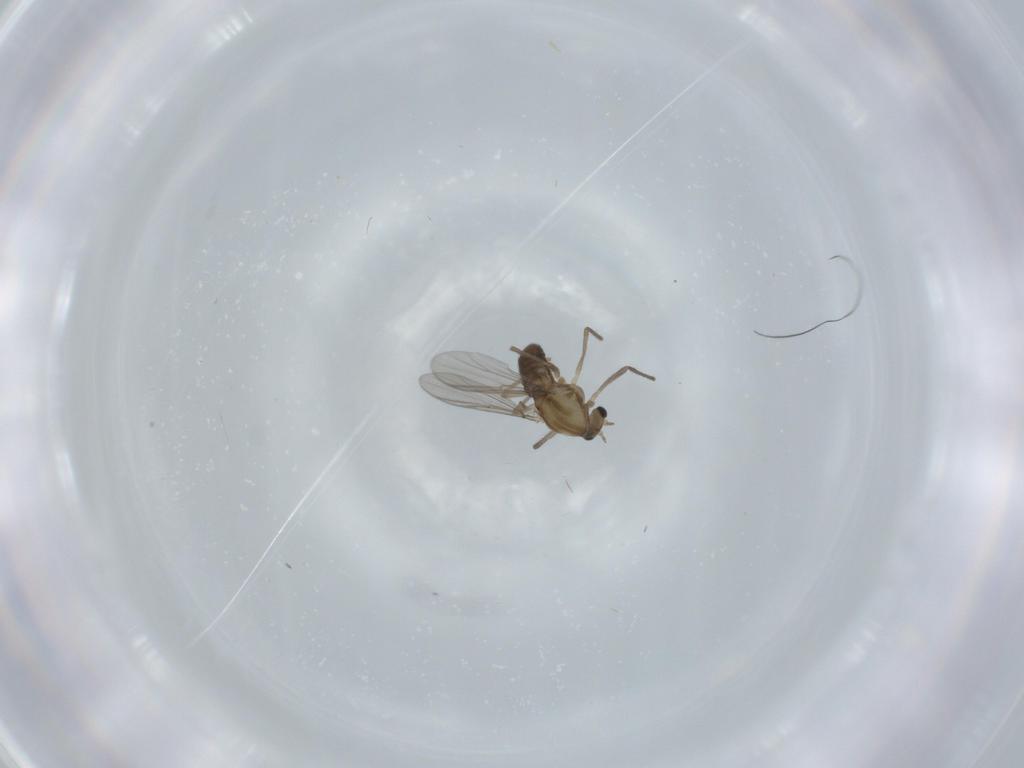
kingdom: Animalia
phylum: Arthropoda
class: Insecta
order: Diptera
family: Chironomidae
